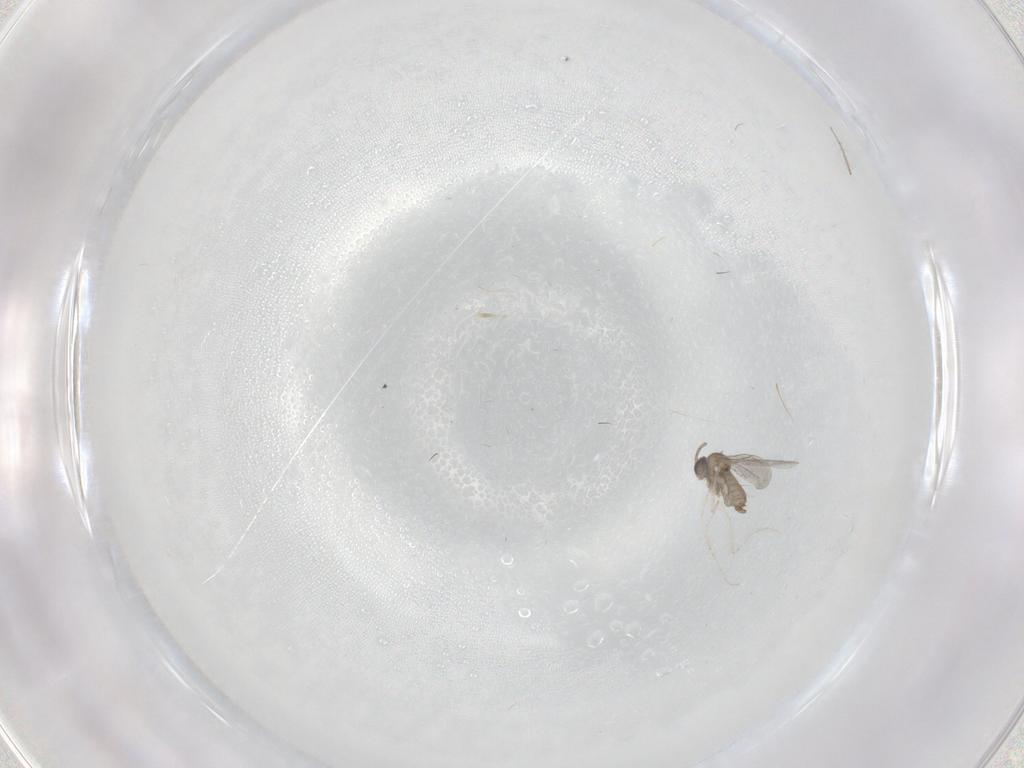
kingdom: Animalia
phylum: Arthropoda
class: Insecta
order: Diptera
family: Cecidomyiidae
